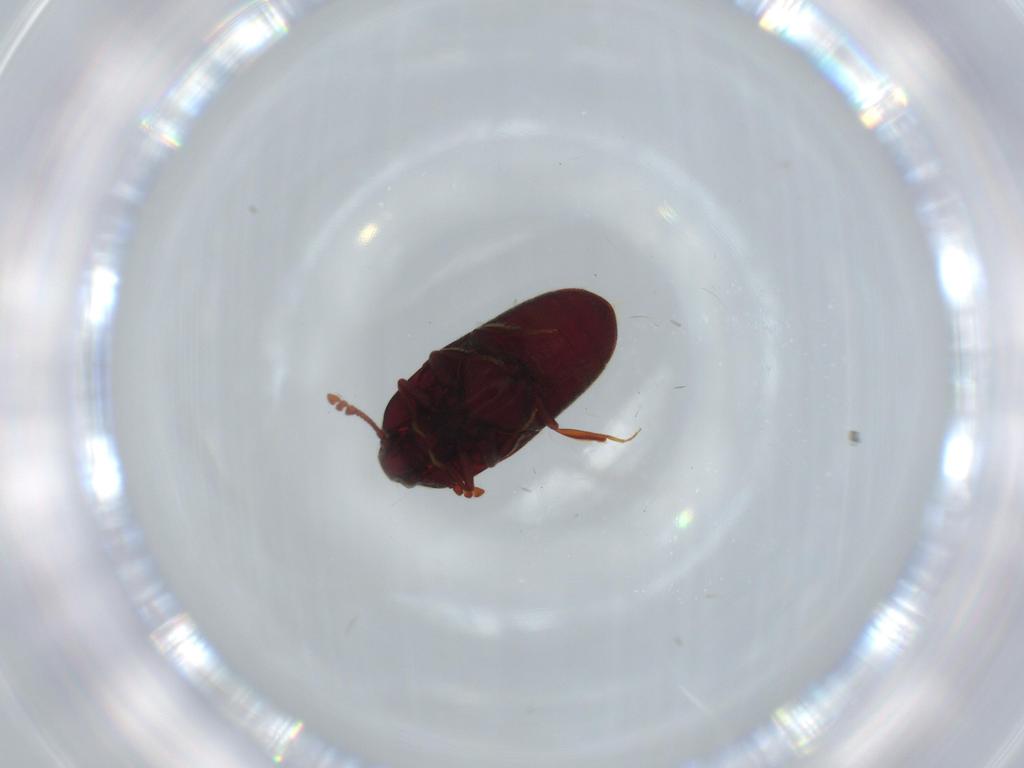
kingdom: Animalia
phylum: Arthropoda
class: Insecta
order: Coleoptera
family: Throscidae
